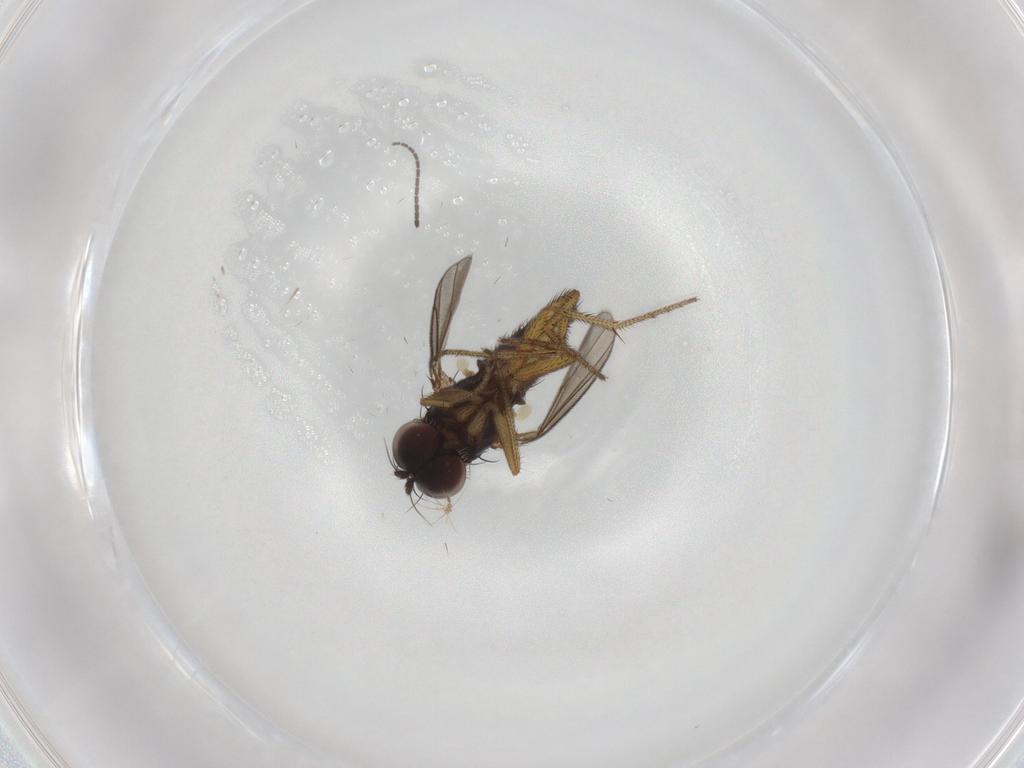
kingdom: Animalia
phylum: Arthropoda
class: Insecta
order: Diptera
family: Sciaridae
